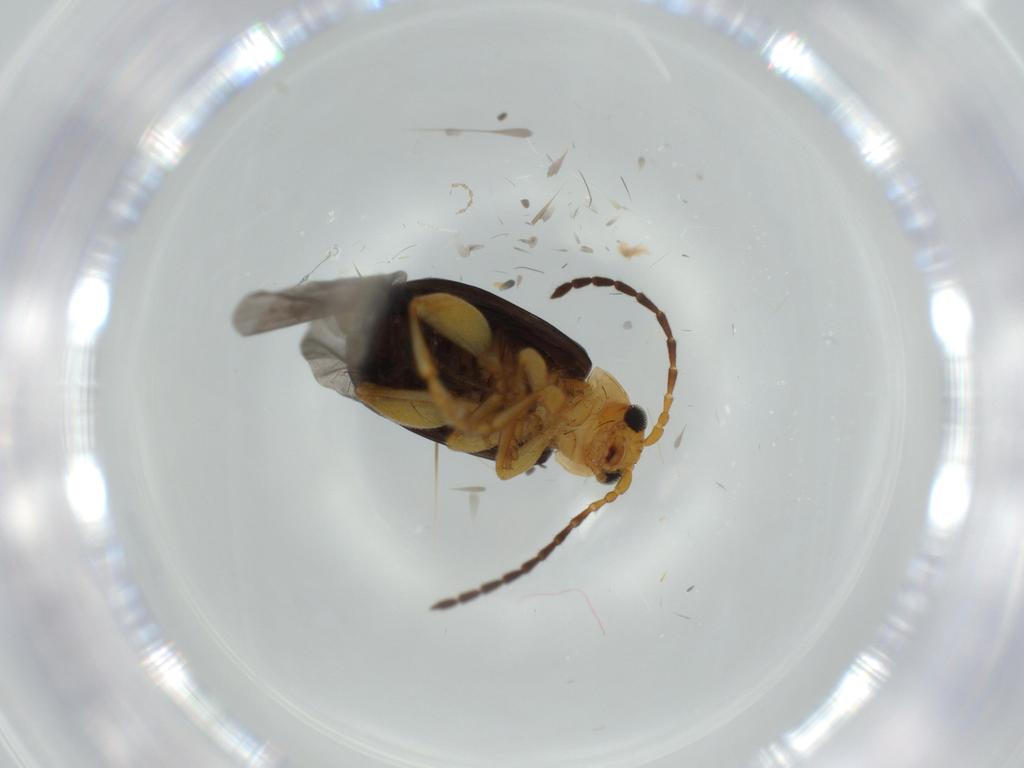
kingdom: Animalia
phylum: Arthropoda
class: Insecta
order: Coleoptera
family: Chrysomelidae
